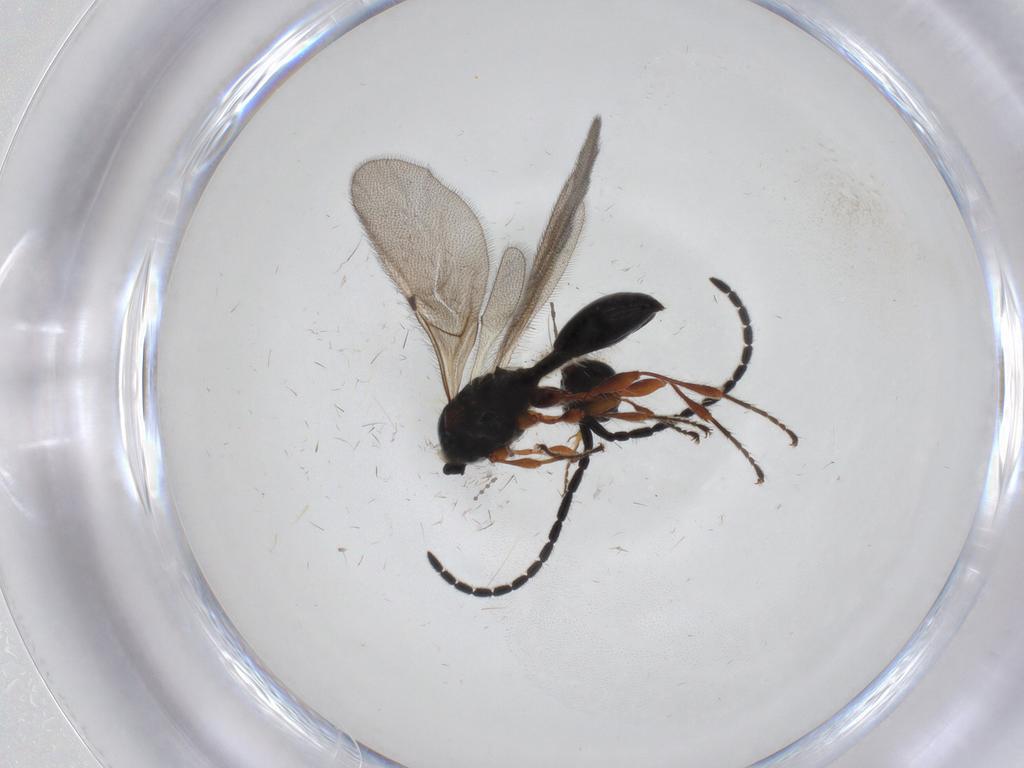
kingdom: Animalia
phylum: Arthropoda
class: Insecta
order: Hymenoptera
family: Diapriidae
